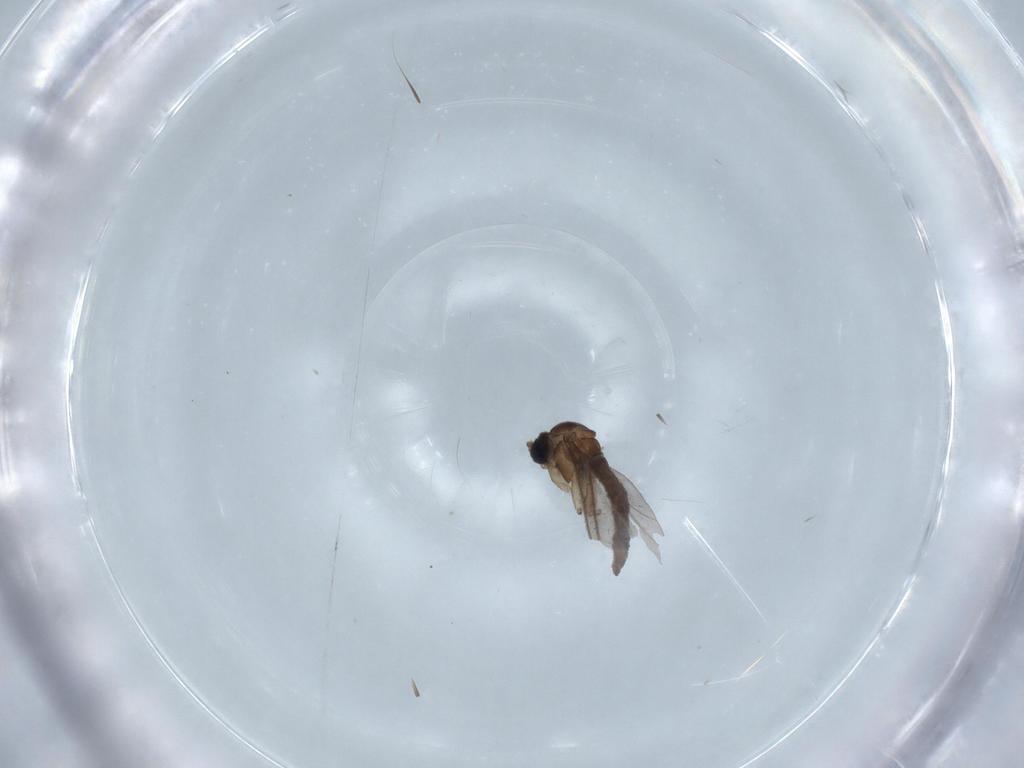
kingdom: Animalia
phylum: Arthropoda
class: Insecta
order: Diptera
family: Sciaridae
